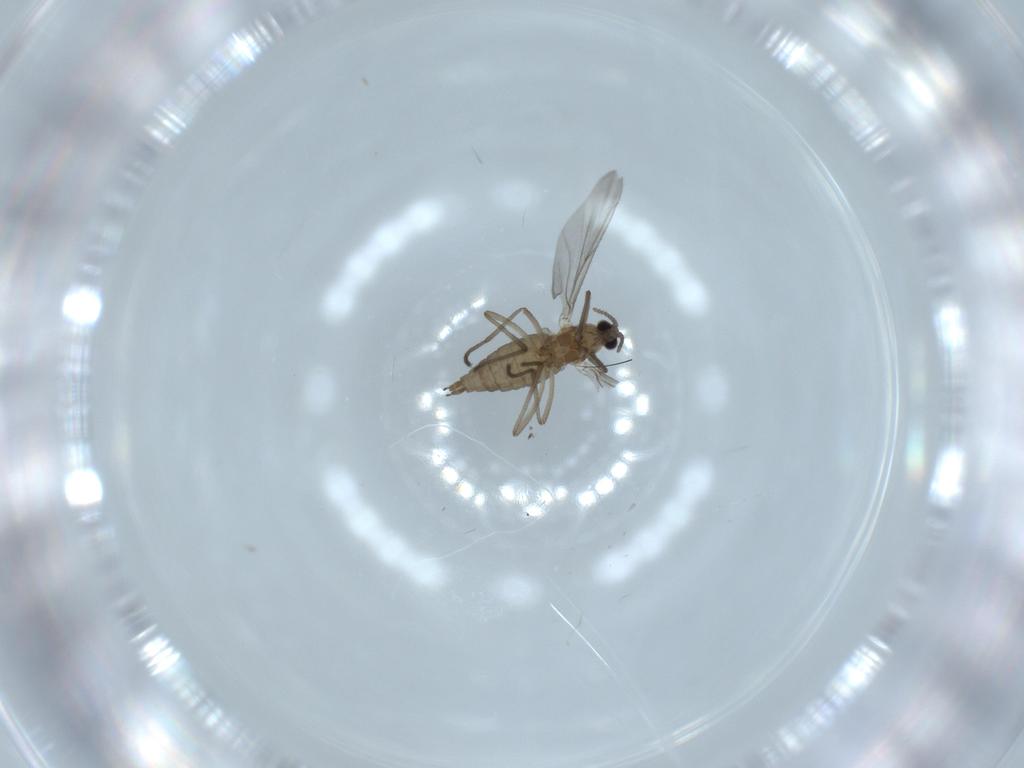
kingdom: Animalia
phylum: Arthropoda
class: Insecta
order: Diptera
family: Cecidomyiidae
